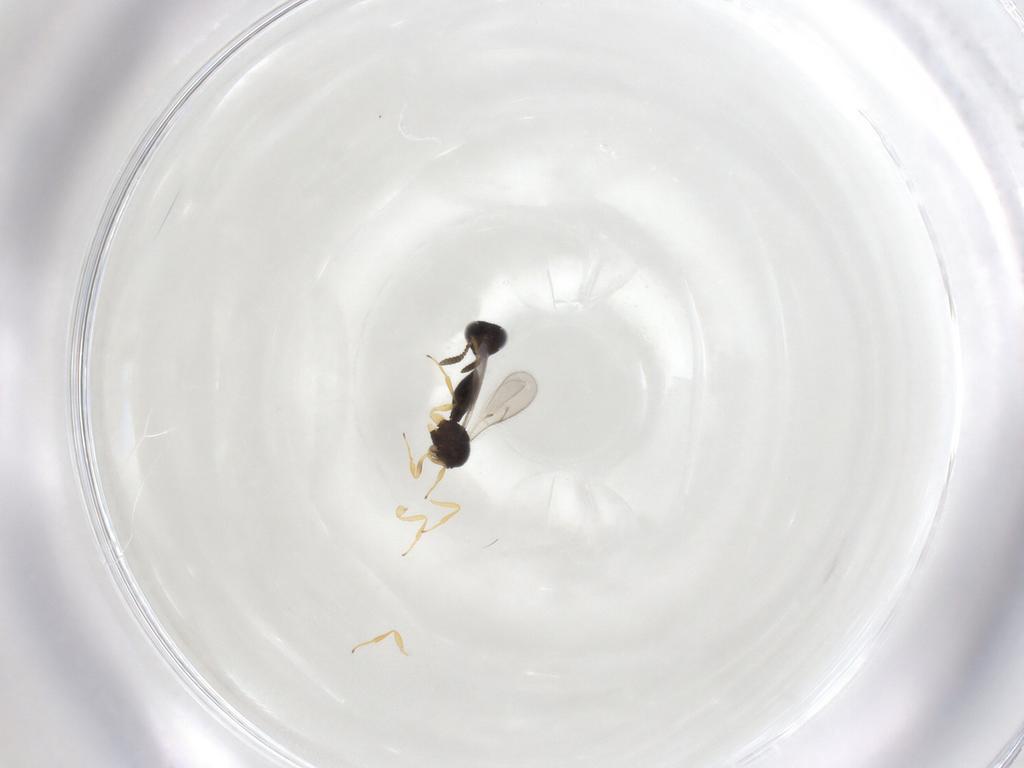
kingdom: Animalia
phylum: Arthropoda
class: Insecta
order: Hymenoptera
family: Scelionidae
